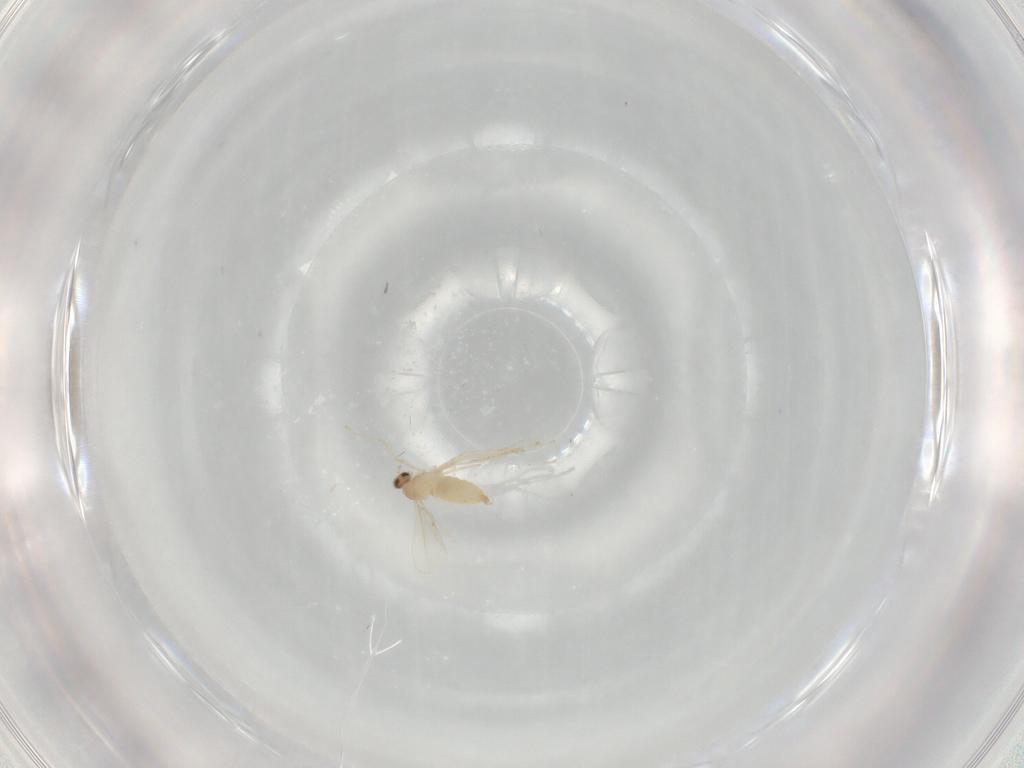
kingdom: Animalia
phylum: Arthropoda
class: Insecta
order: Diptera
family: Cecidomyiidae
